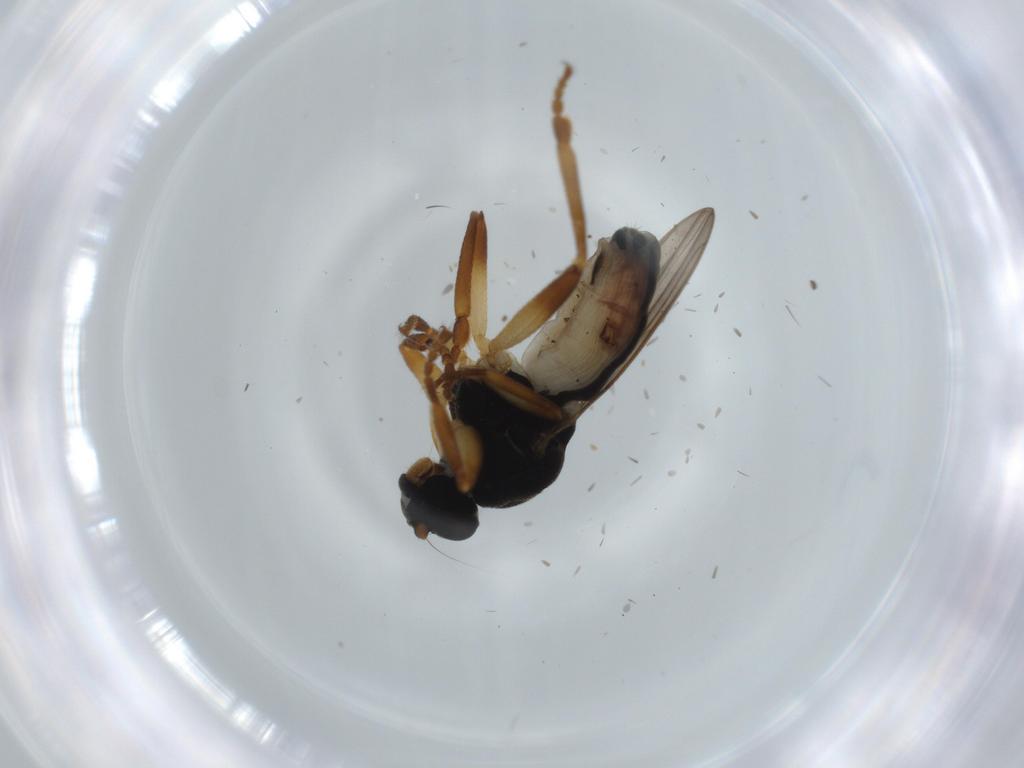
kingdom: Animalia
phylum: Arthropoda
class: Insecta
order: Diptera
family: Sphaeroceridae
